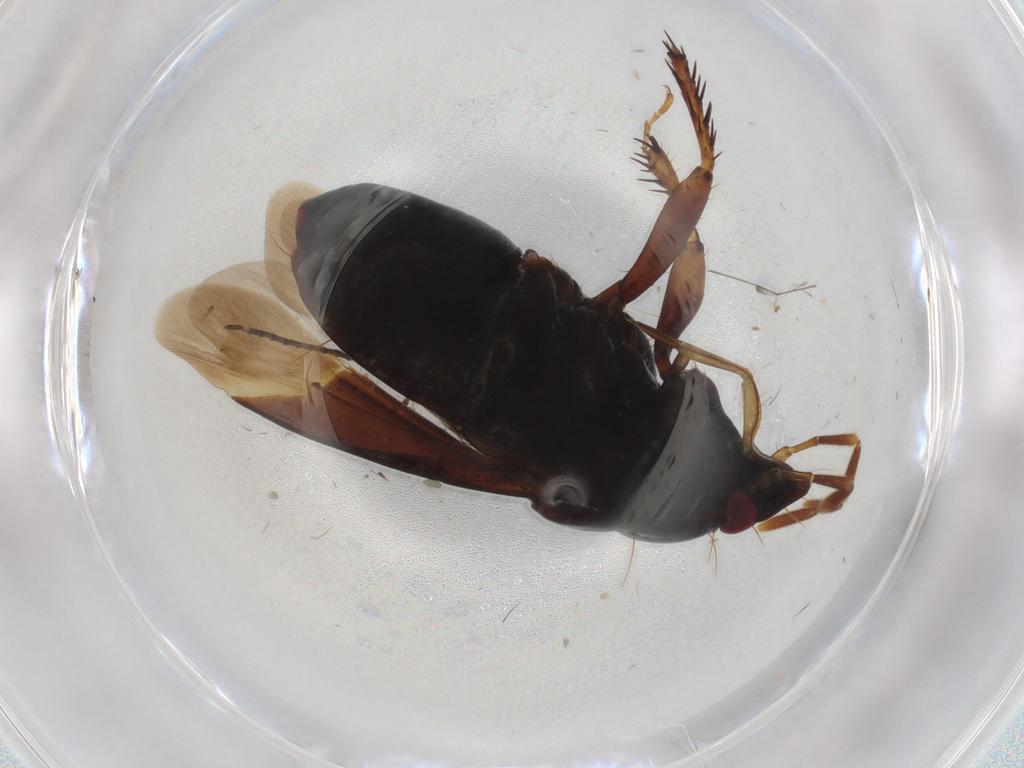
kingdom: Animalia
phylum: Arthropoda
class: Insecta
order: Hemiptera
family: Cydnidae
